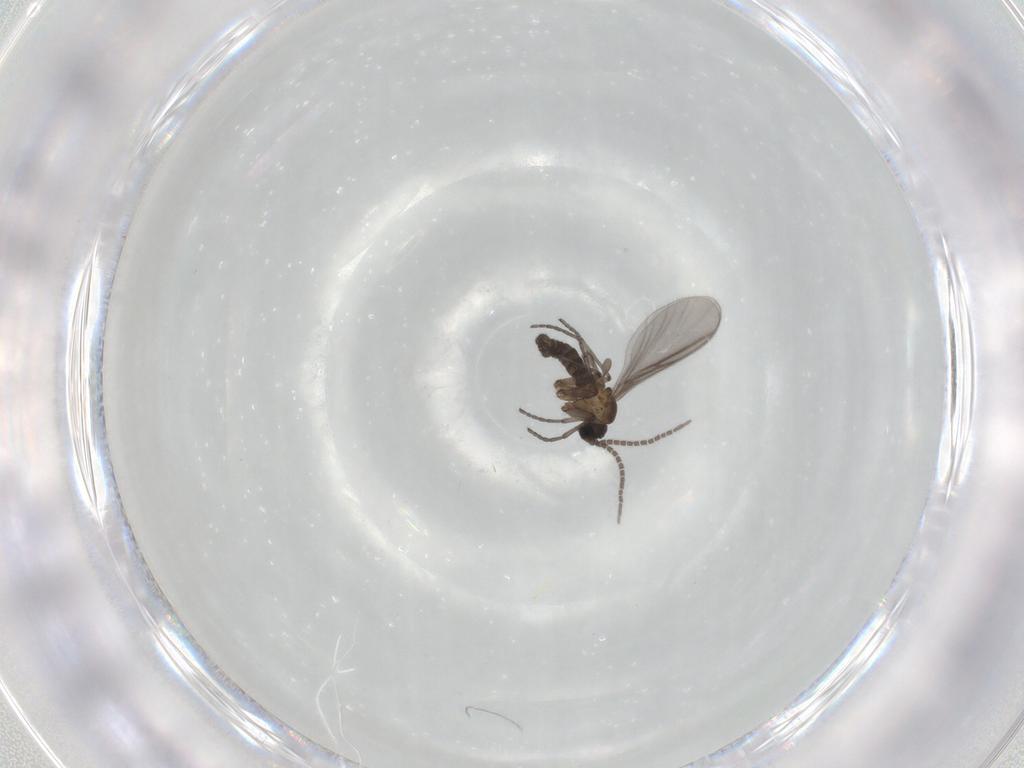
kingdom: Animalia
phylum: Arthropoda
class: Insecta
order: Diptera
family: Sciaridae
